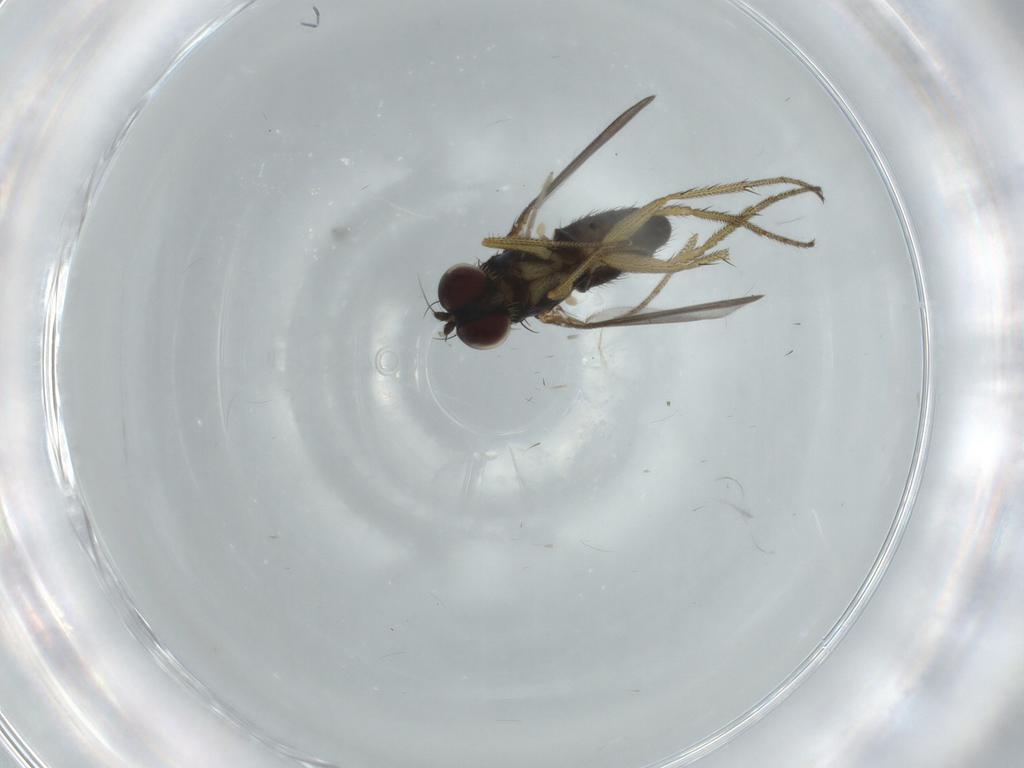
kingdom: Animalia
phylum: Arthropoda
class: Insecta
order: Diptera
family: Dolichopodidae
